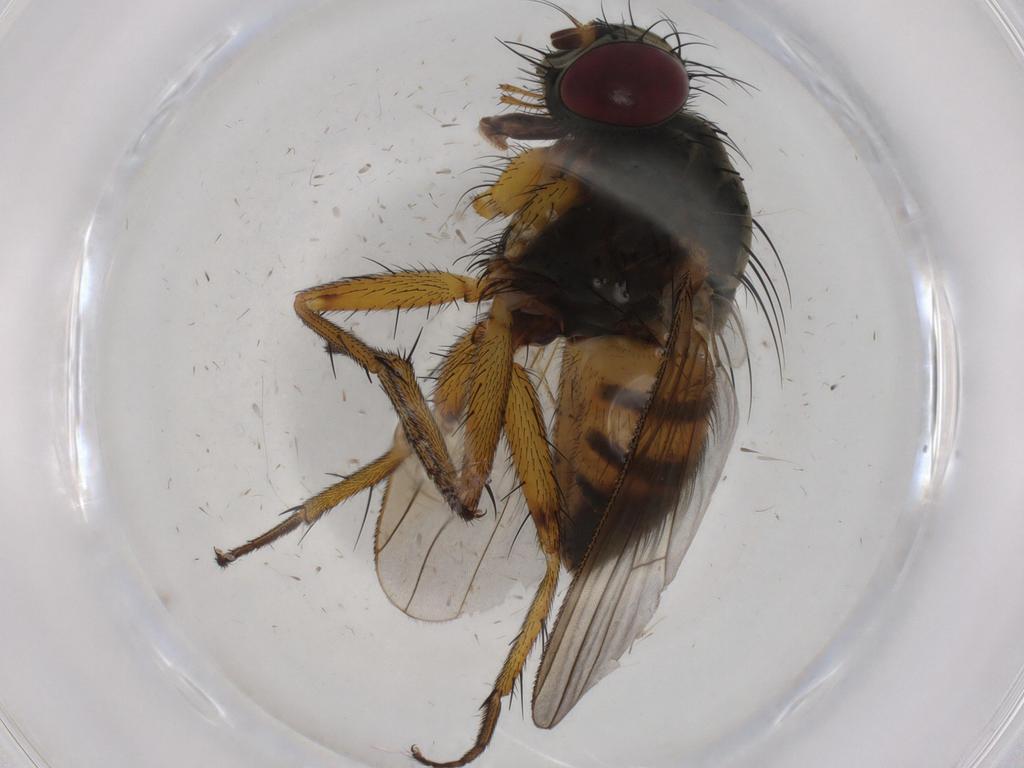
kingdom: Animalia
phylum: Arthropoda
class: Insecta
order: Diptera
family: Muscidae
